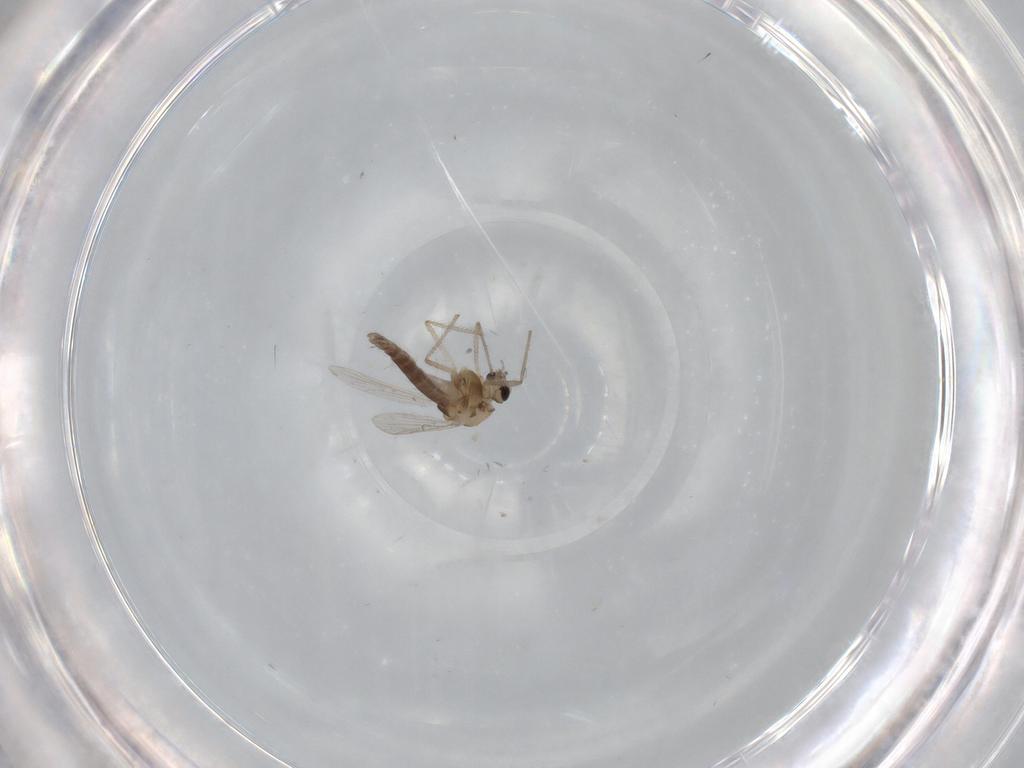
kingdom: Animalia
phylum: Arthropoda
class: Insecta
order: Diptera
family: Chironomidae
